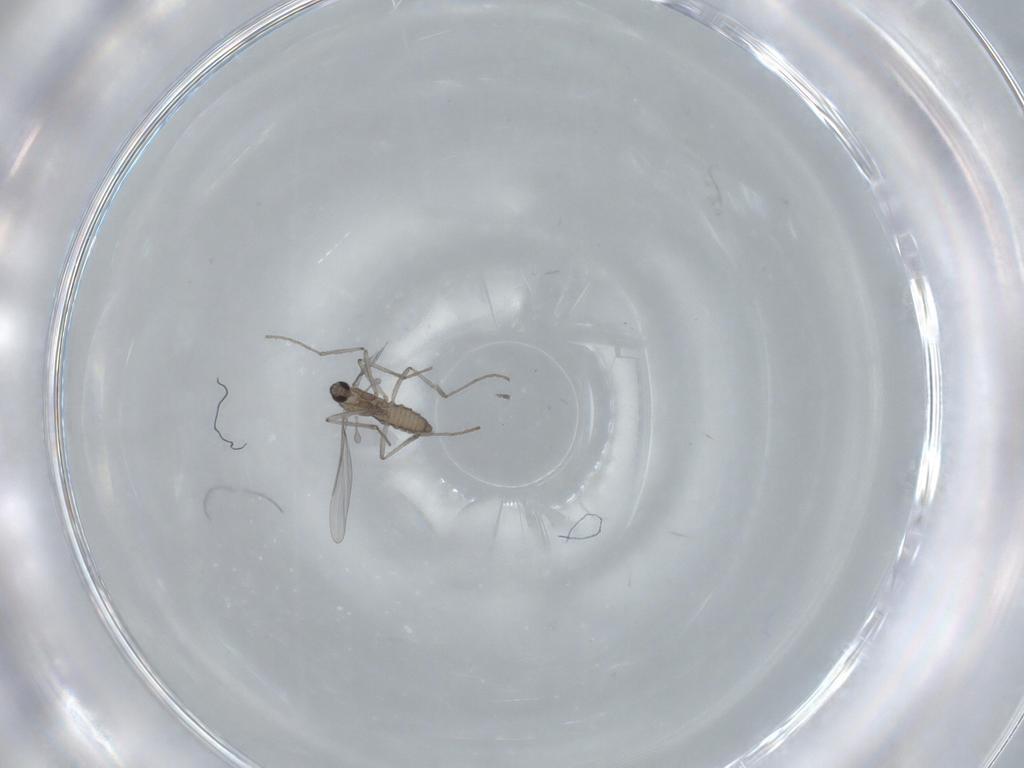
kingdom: Animalia
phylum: Arthropoda
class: Insecta
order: Diptera
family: Cecidomyiidae
